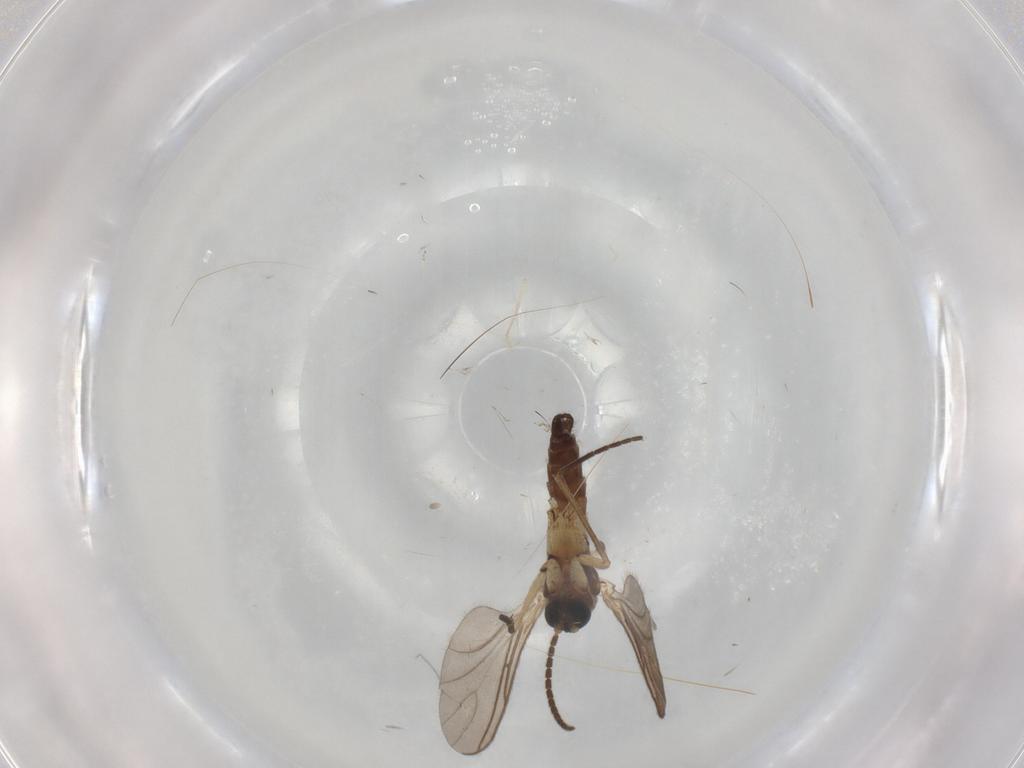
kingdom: Animalia
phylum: Arthropoda
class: Insecta
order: Diptera
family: Sciaridae
